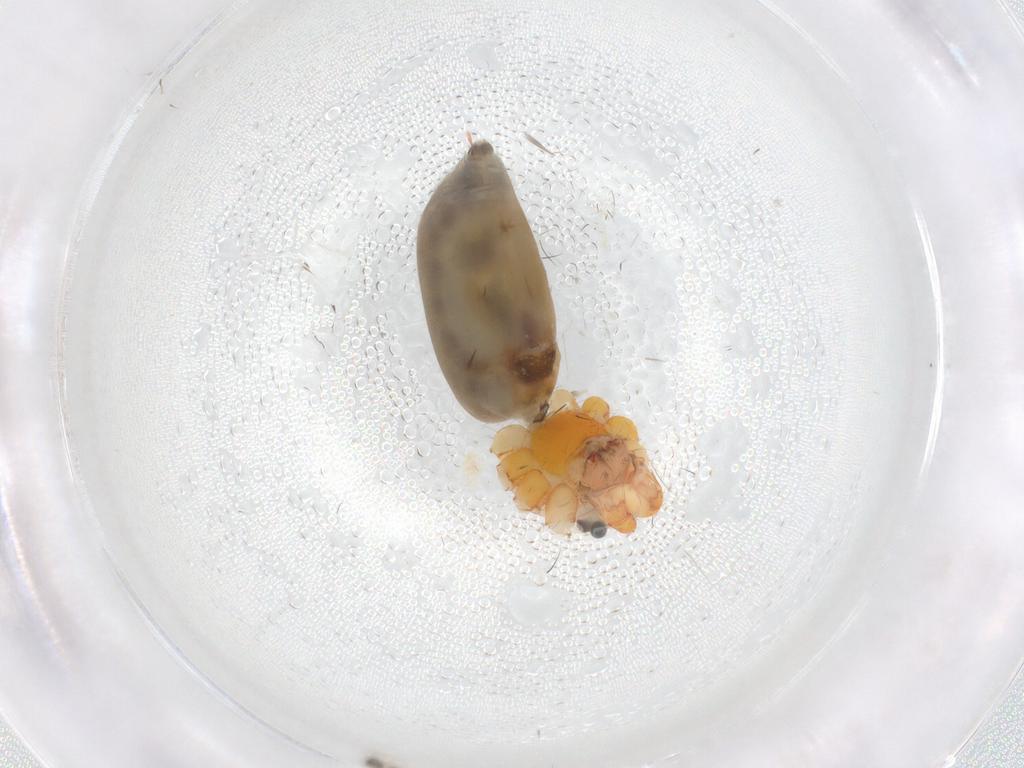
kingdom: Animalia
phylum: Arthropoda
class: Arachnida
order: Araneae
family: Pholcidae
